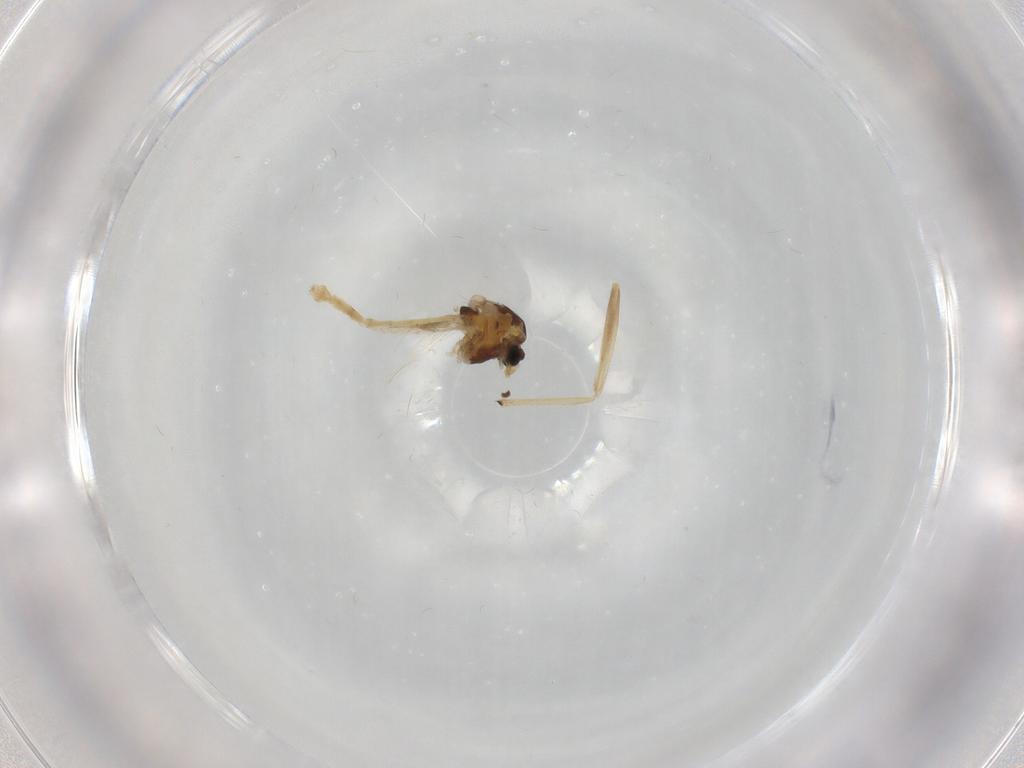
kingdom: Animalia
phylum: Arthropoda
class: Insecta
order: Diptera
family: Chironomidae
